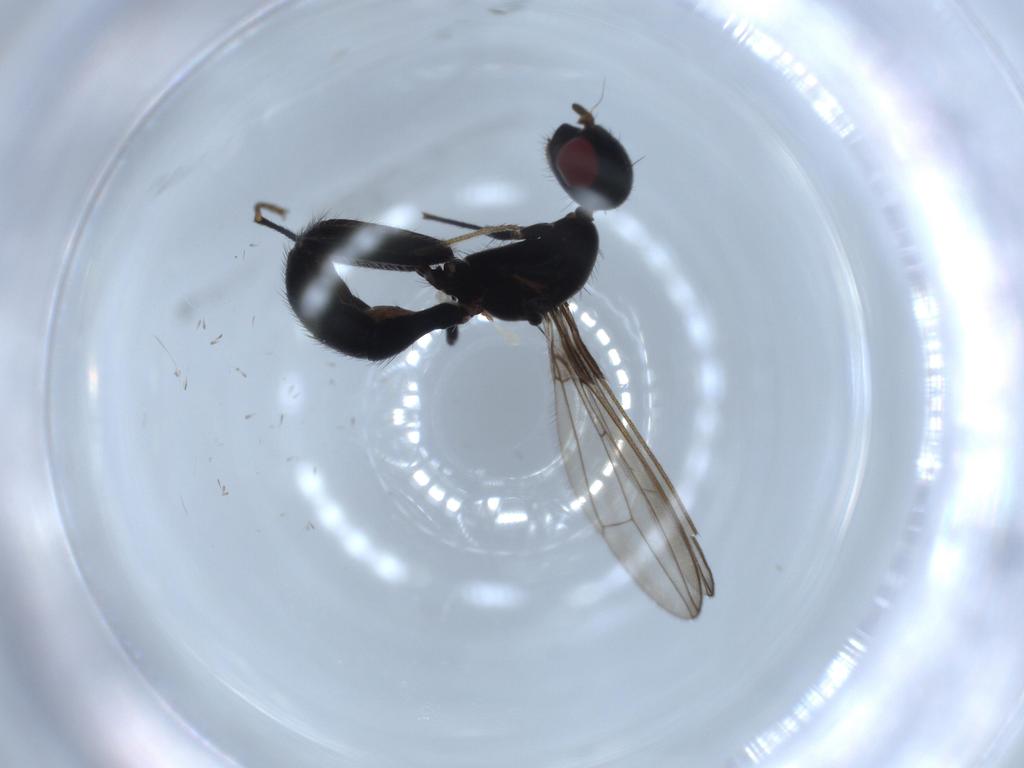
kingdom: Animalia
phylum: Arthropoda
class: Insecta
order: Diptera
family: Richardiidae
